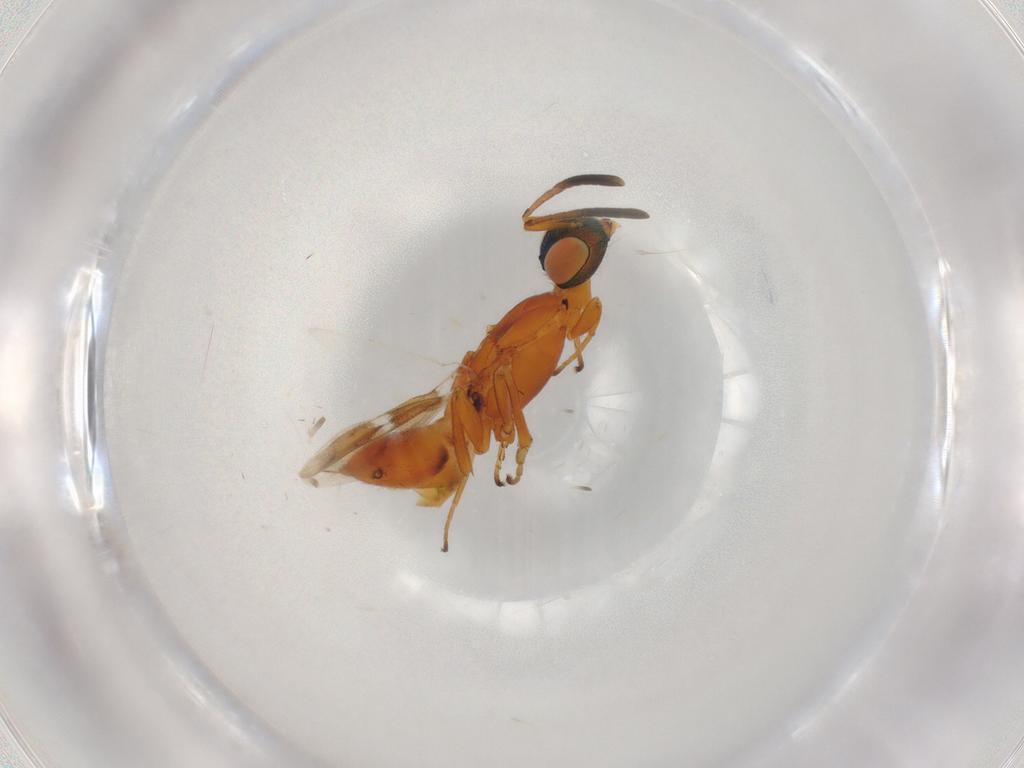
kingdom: Animalia
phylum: Arthropoda
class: Insecta
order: Hymenoptera
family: Eupelmidae
